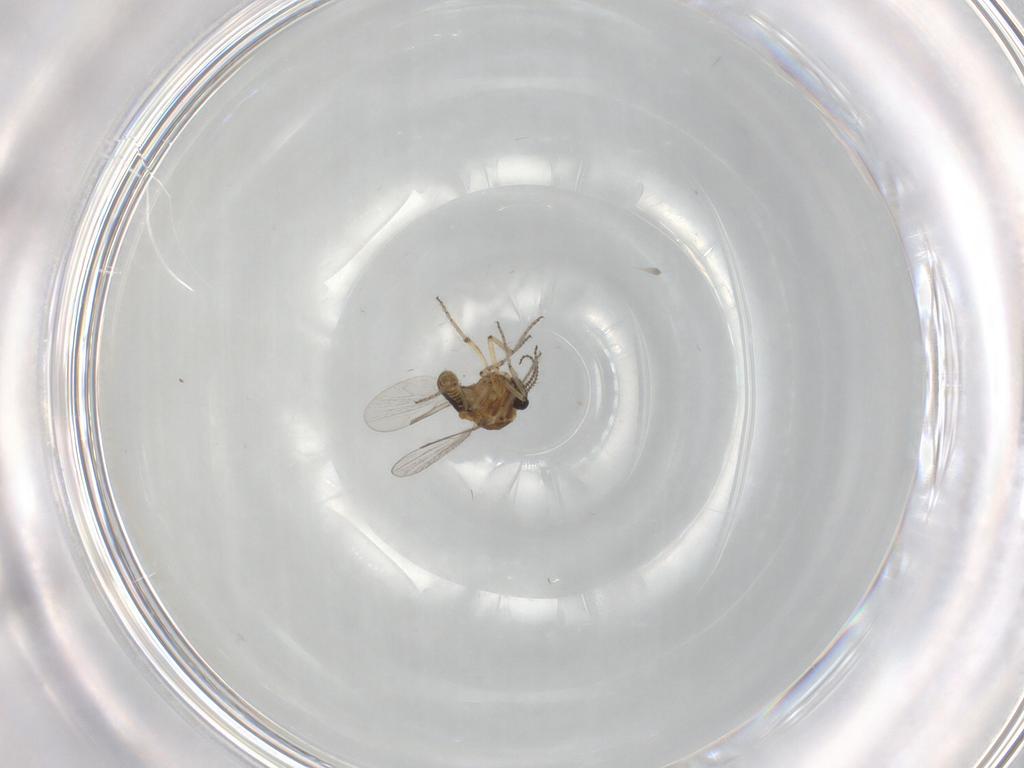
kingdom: Animalia
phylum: Arthropoda
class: Insecta
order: Diptera
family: Ceratopogonidae
